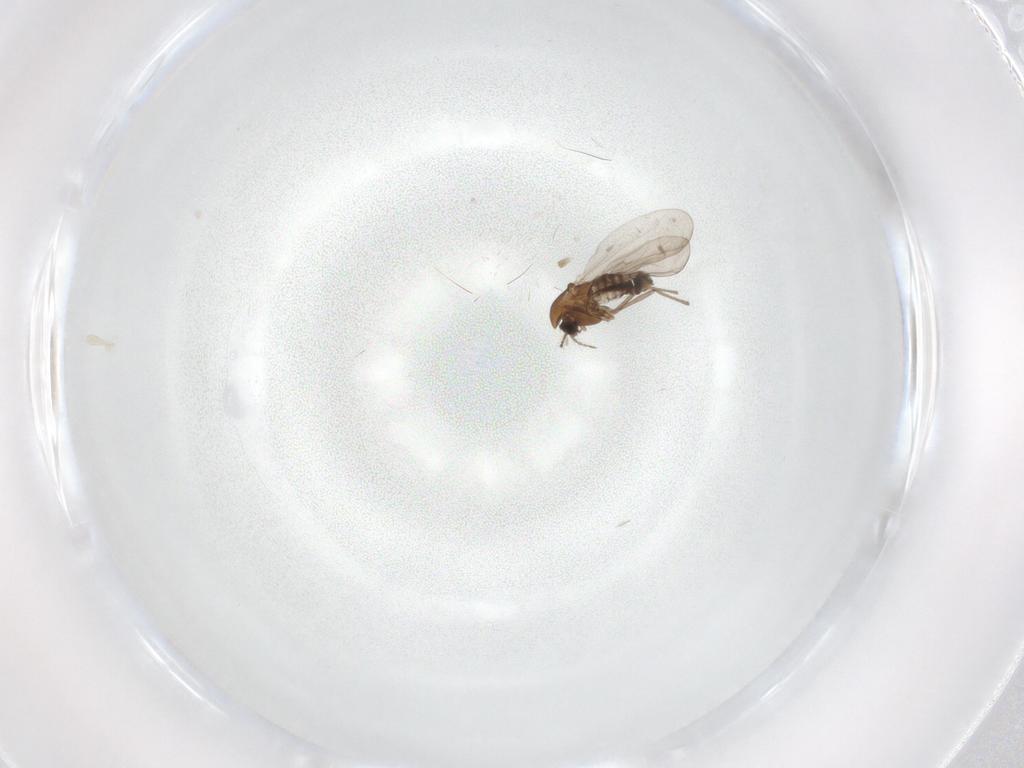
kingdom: Animalia
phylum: Arthropoda
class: Insecta
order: Diptera
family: Chironomidae
